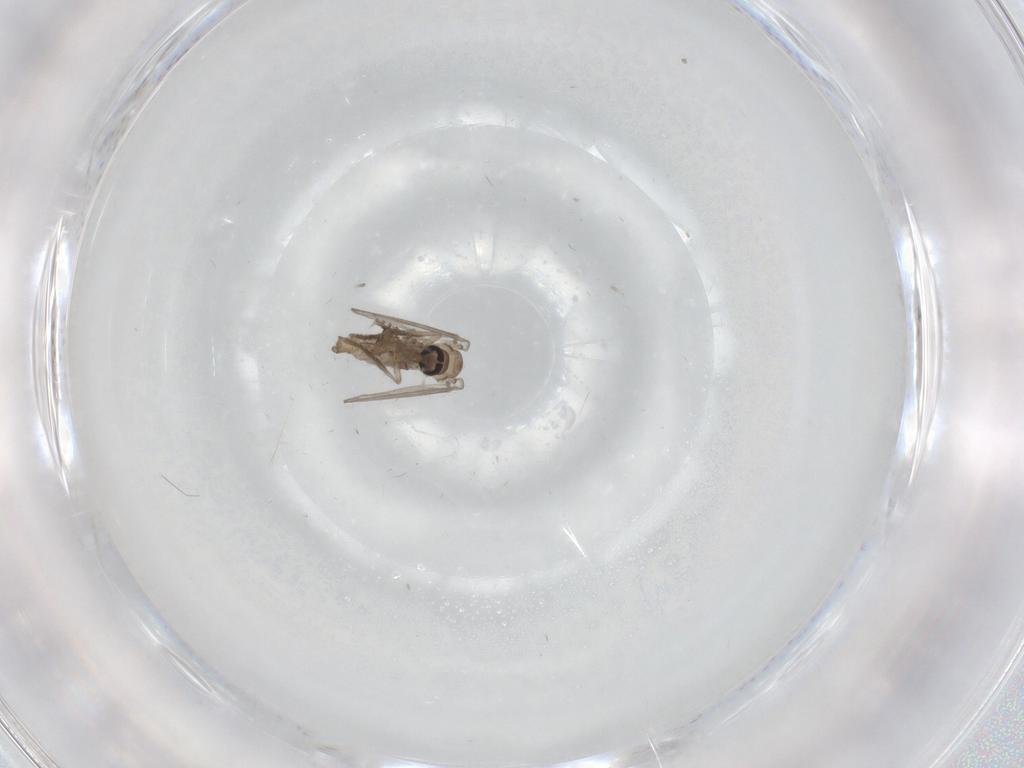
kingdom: Animalia
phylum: Arthropoda
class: Insecta
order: Diptera
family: Psychodidae
